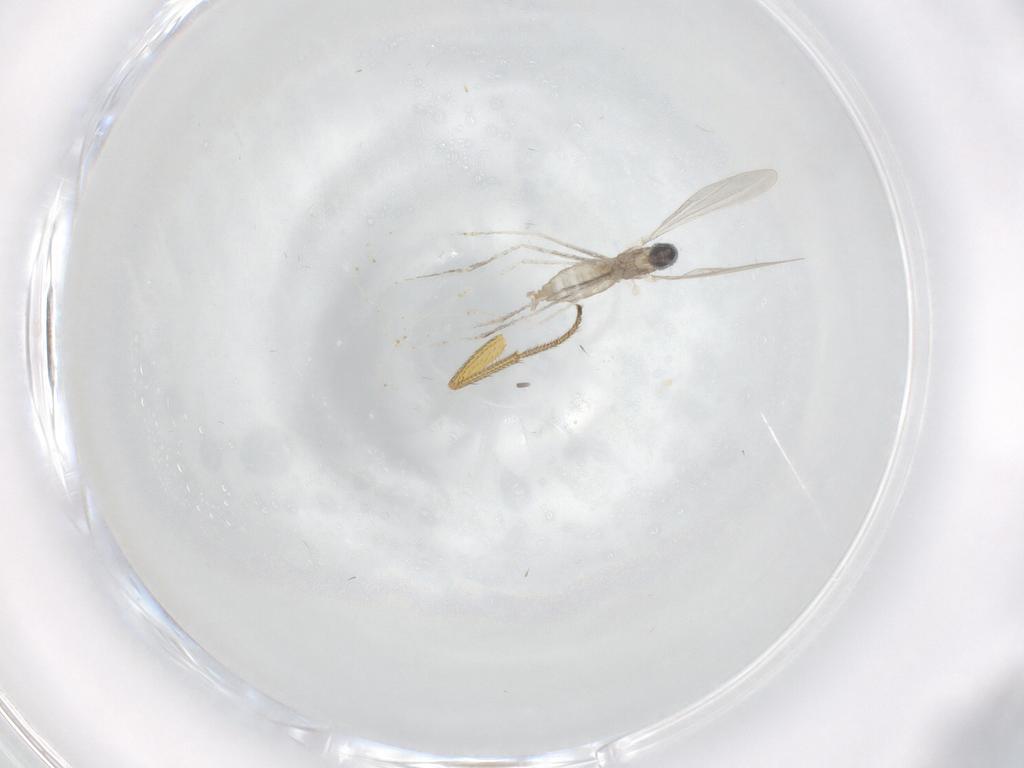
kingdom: Animalia
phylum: Arthropoda
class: Insecta
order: Diptera
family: Cecidomyiidae
